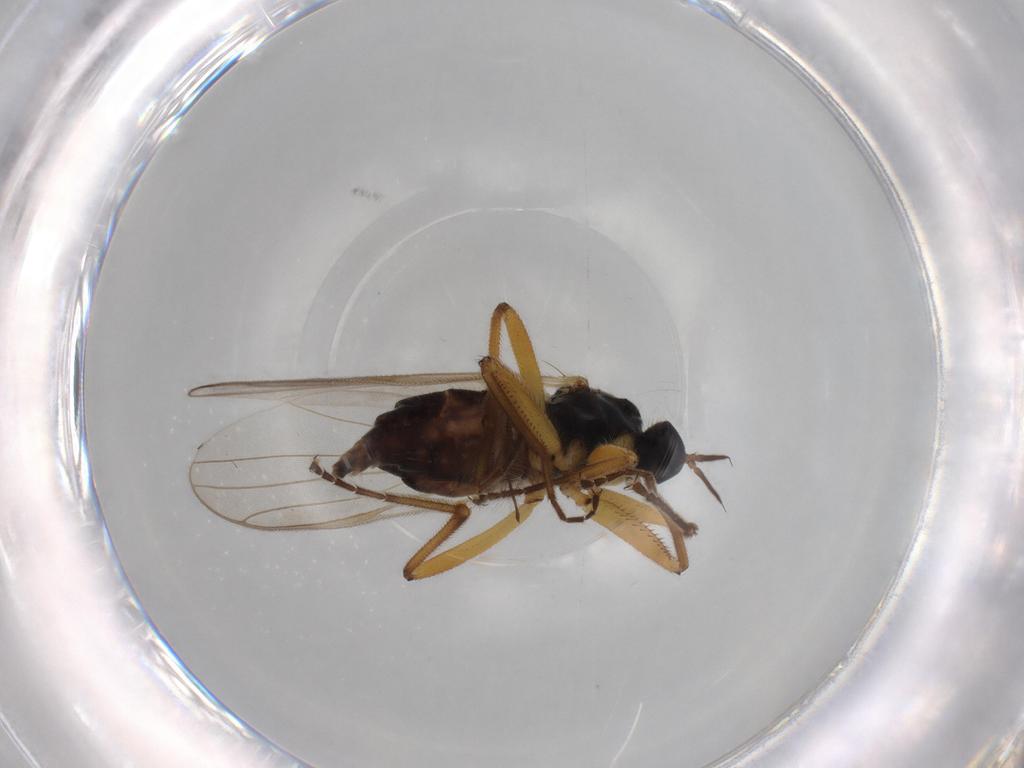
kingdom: Animalia
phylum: Arthropoda
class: Insecta
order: Diptera
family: Drosophilidae
